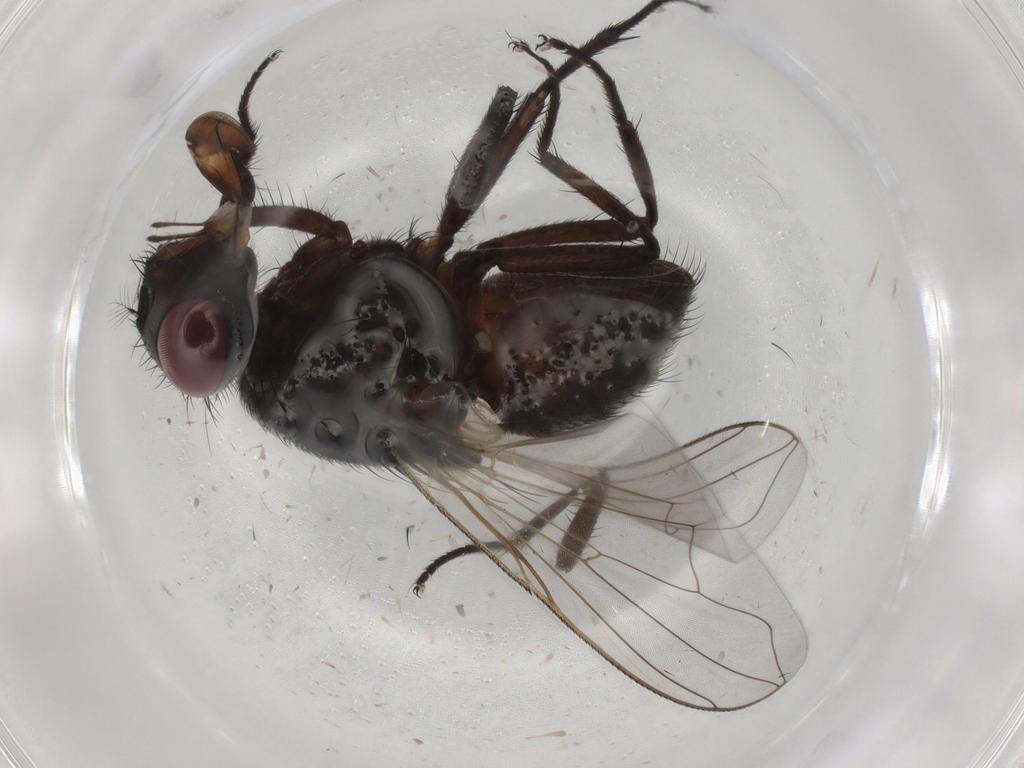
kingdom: Animalia
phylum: Arthropoda
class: Insecta
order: Diptera
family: Muscidae
